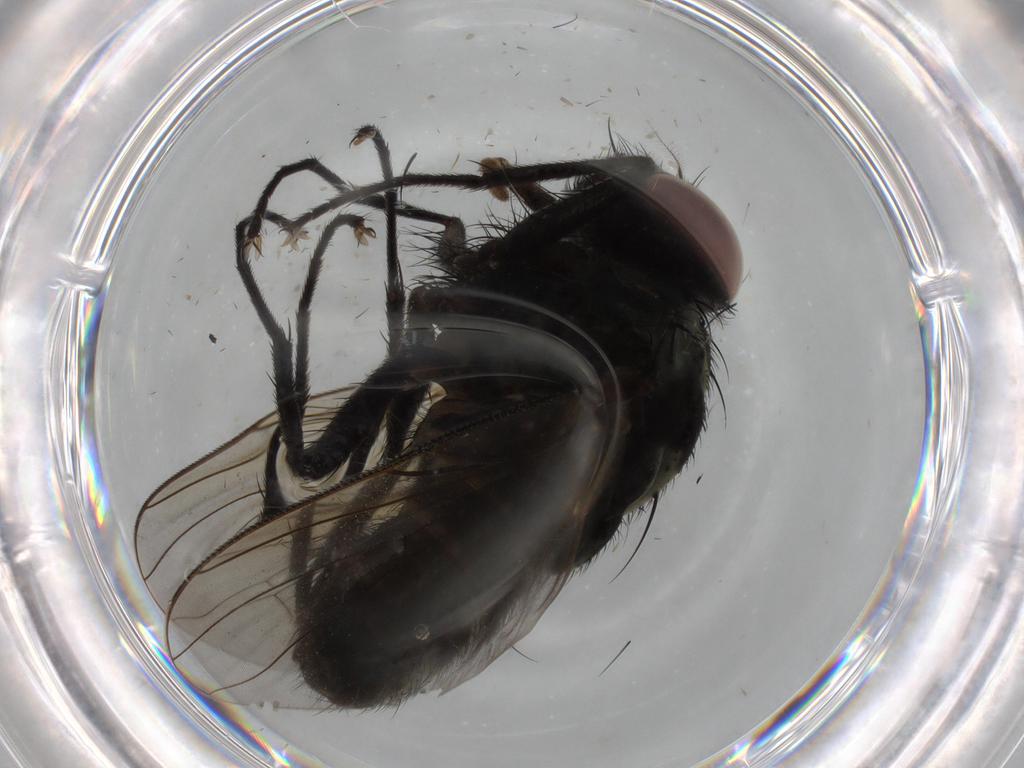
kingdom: Animalia
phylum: Arthropoda
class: Insecta
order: Diptera
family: Muscidae
